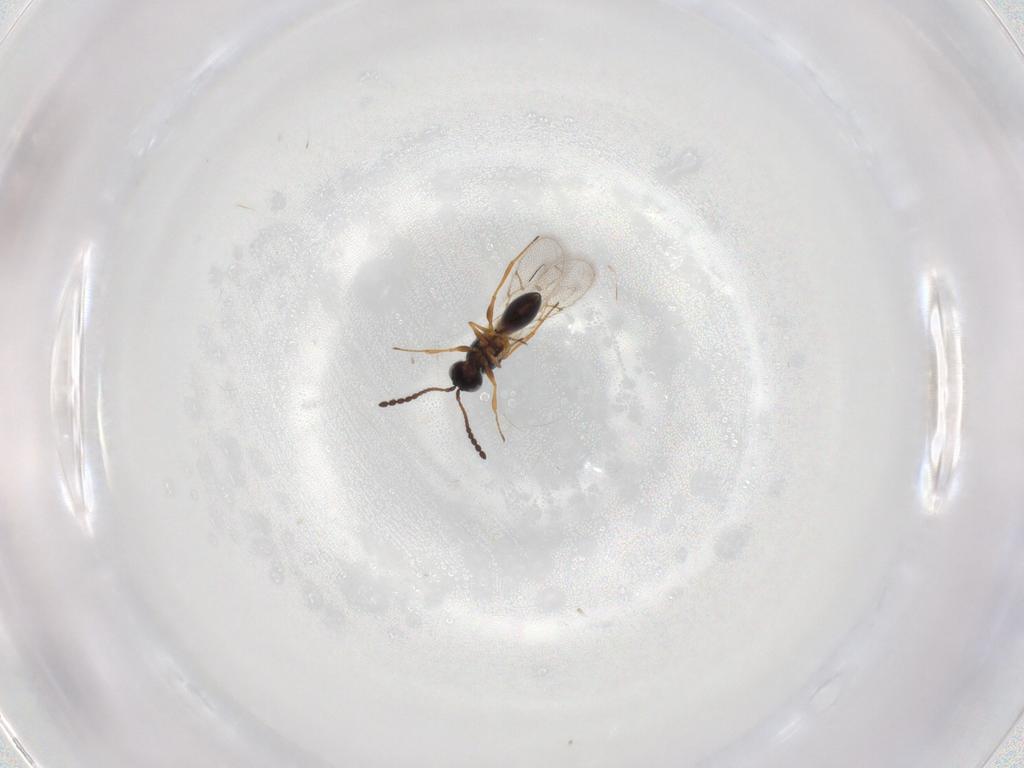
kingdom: Animalia
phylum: Arthropoda
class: Insecta
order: Hymenoptera
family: Figitidae
